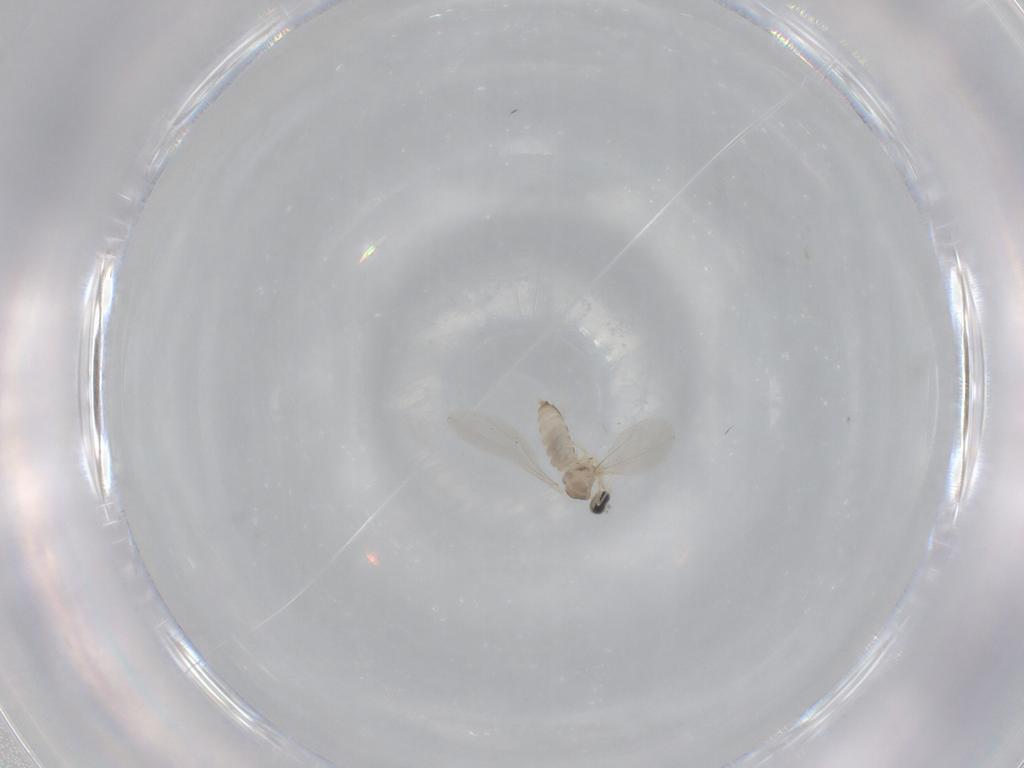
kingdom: Animalia
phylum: Arthropoda
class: Insecta
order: Diptera
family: Cecidomyiidae
